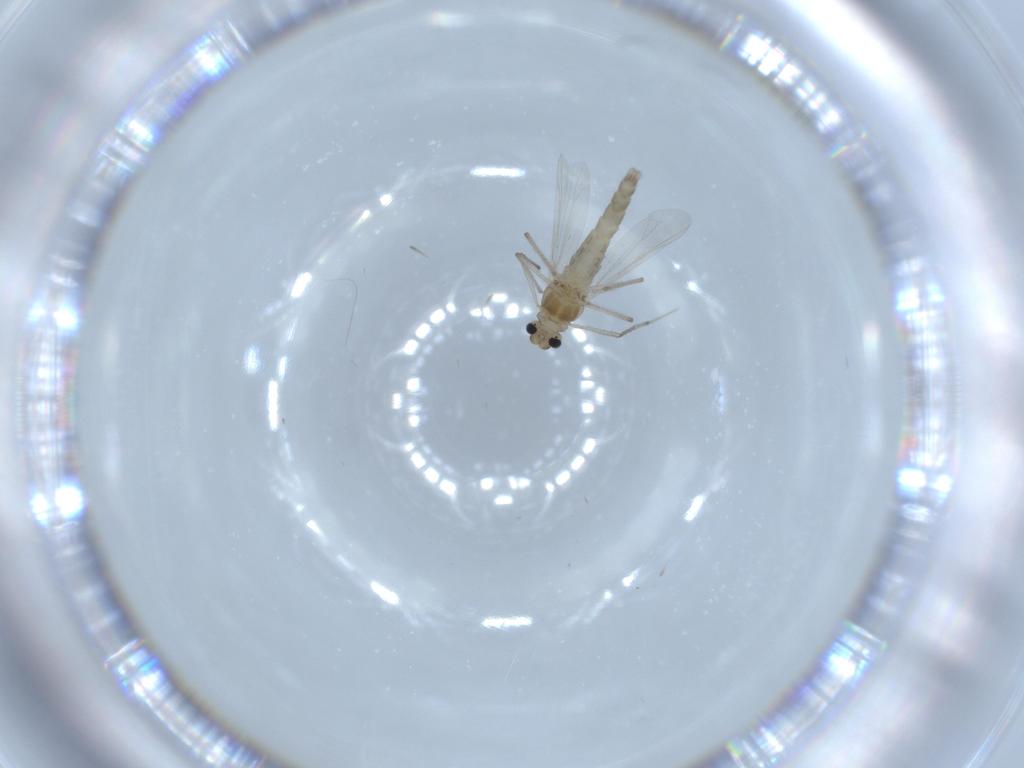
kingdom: Animalia
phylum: Arthropoda
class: Insecta
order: Diptera
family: Chironomidae
